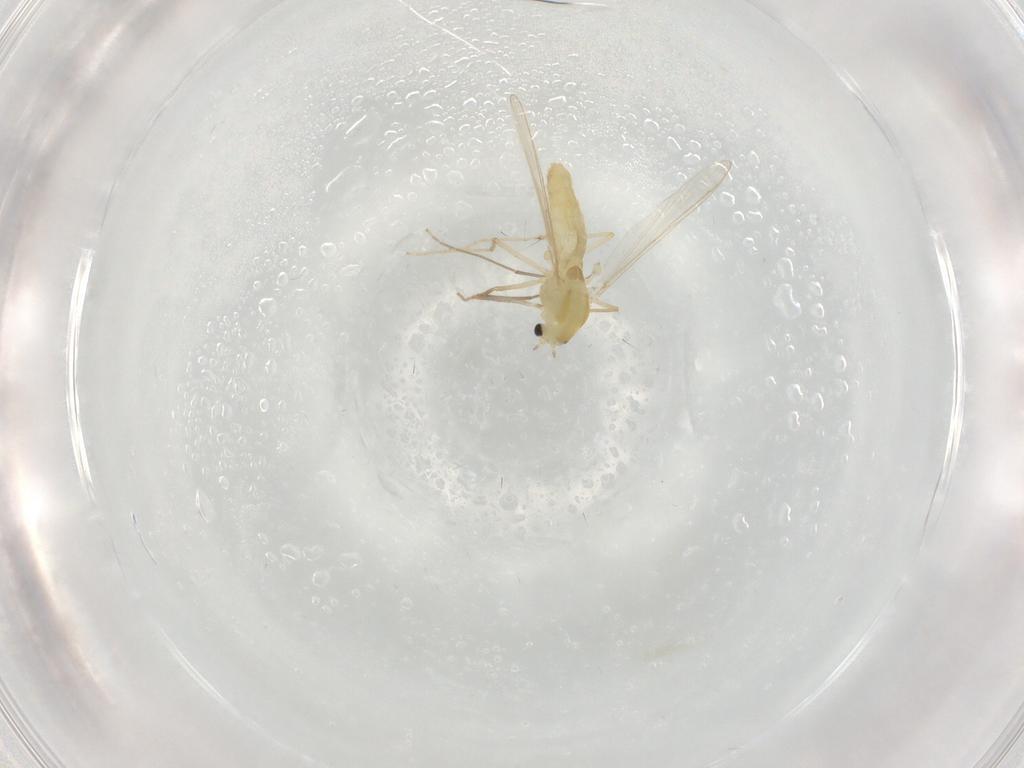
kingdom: Animalia
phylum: Arthropoda
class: Insecta
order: Diptera
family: Chironomidae
